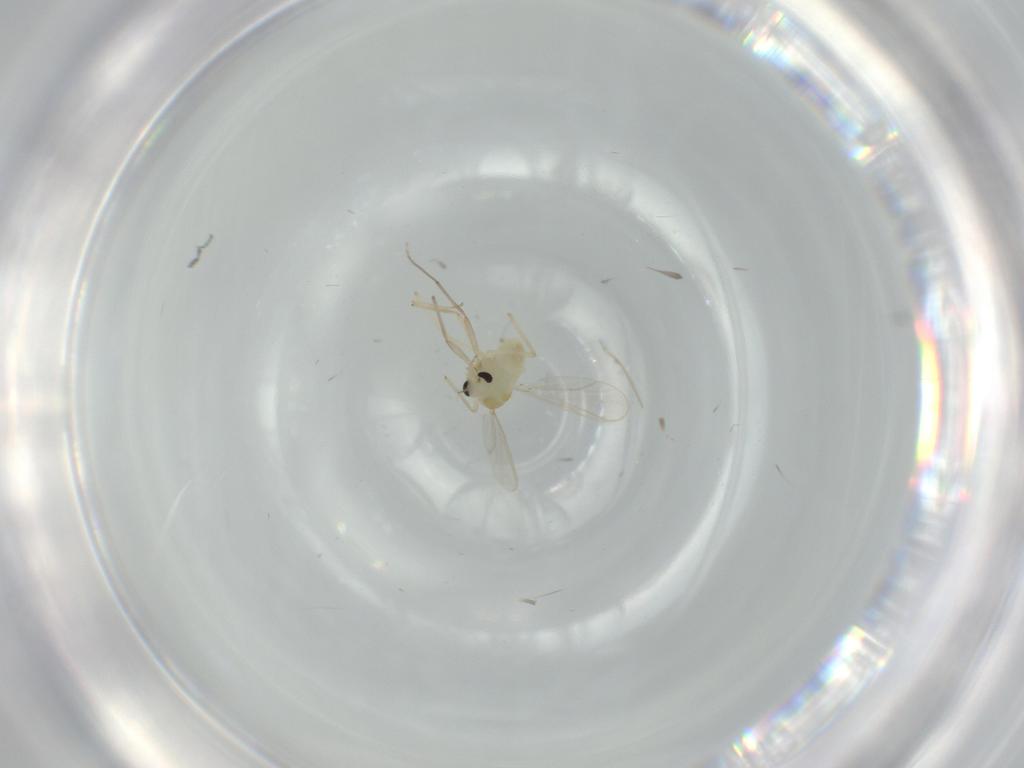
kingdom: Animalia
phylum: Arthropoda
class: Insecta
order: Diptera
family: Chironomidae
